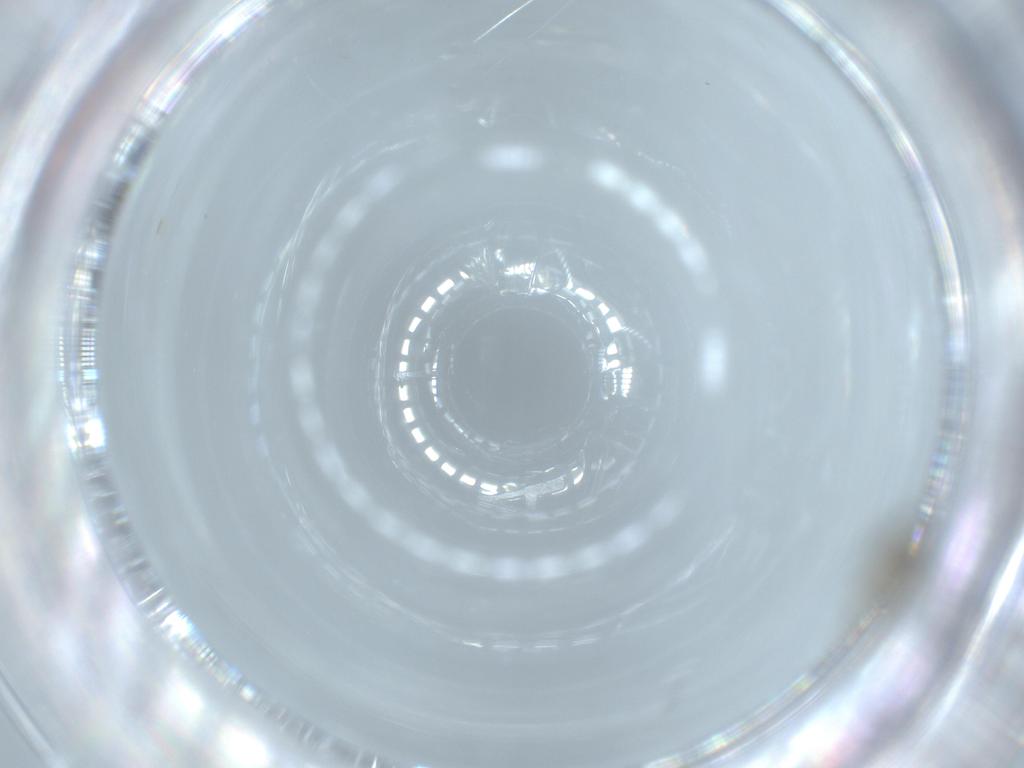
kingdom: Animalia
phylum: Arthropoda
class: Insecta
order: Diptera
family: Cecidomyiidae
